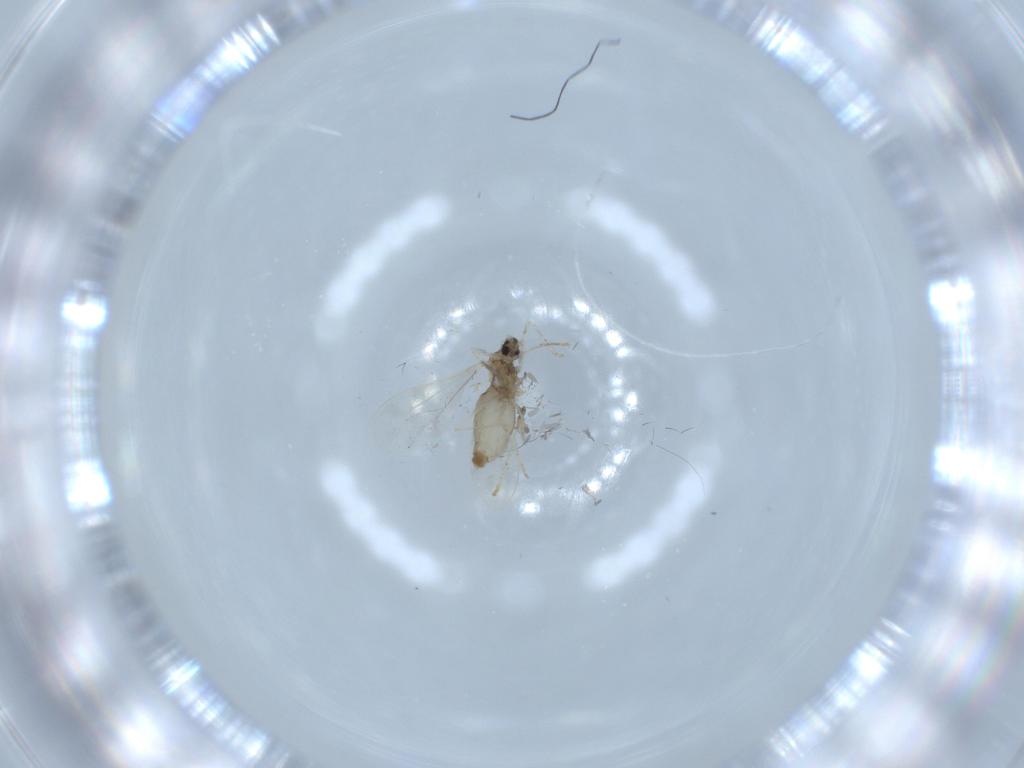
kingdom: Animalia
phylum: Arthropoda
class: Insecta
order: Diptera
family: Cecidomyiidae
